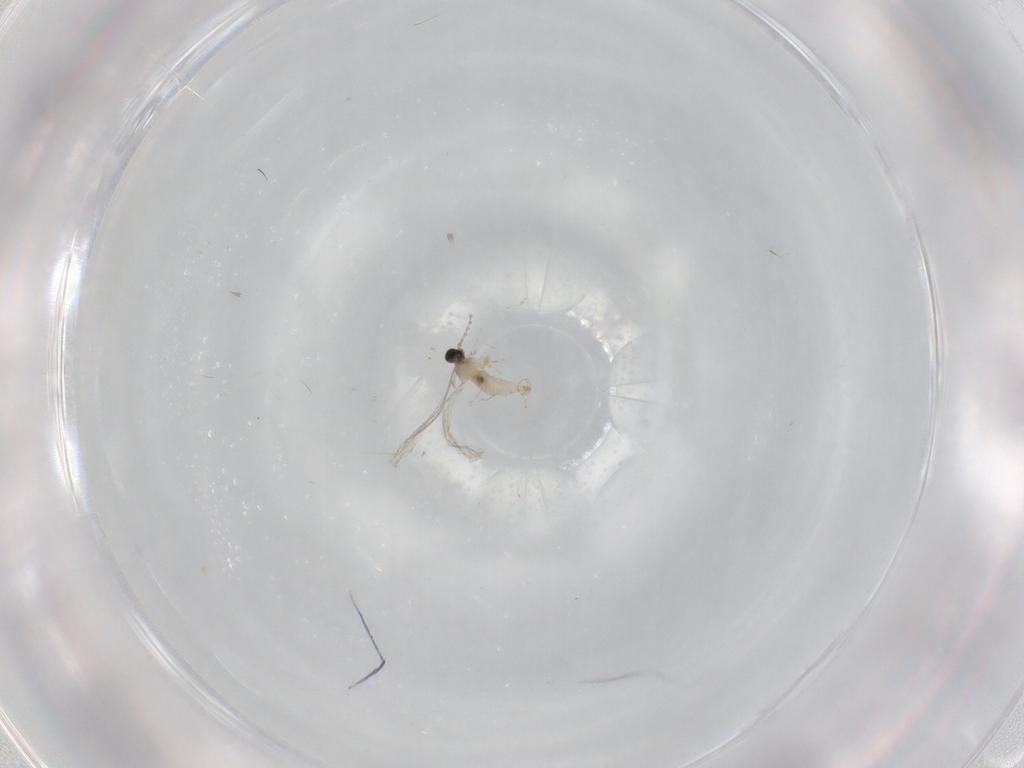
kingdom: Animalia
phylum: Arthropoda
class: Insecta
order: Diptera
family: Cecidomyiidae
